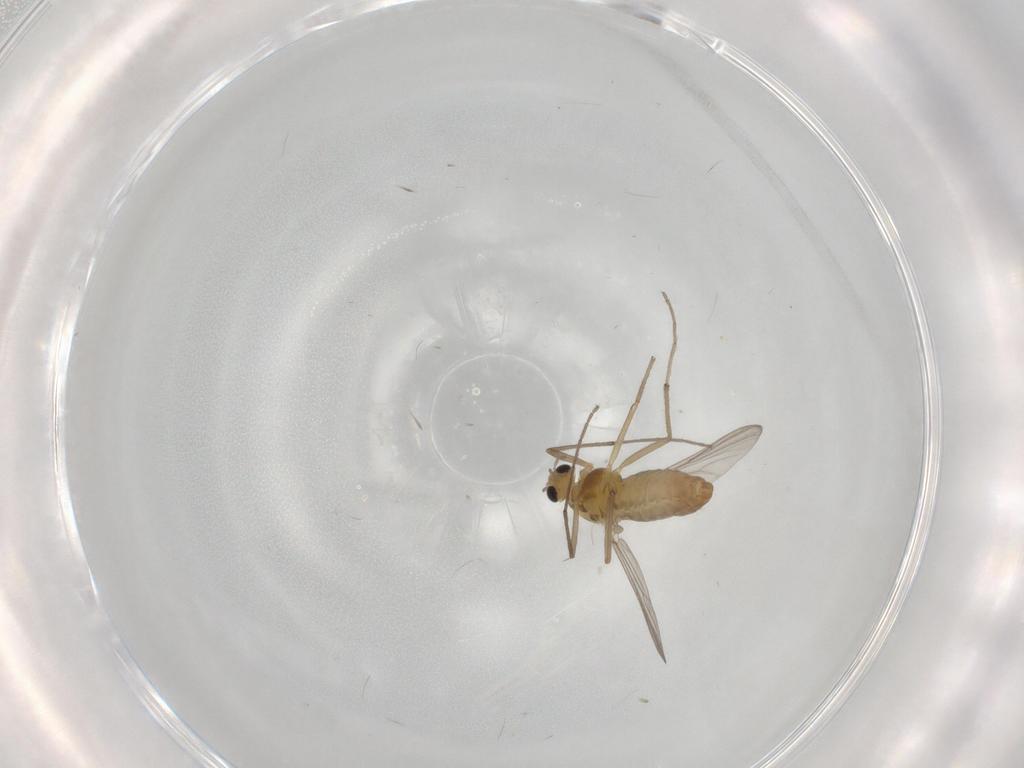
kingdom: Animalia
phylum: Arthropoda
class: Insecta
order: Diptera
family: Chironomidae
